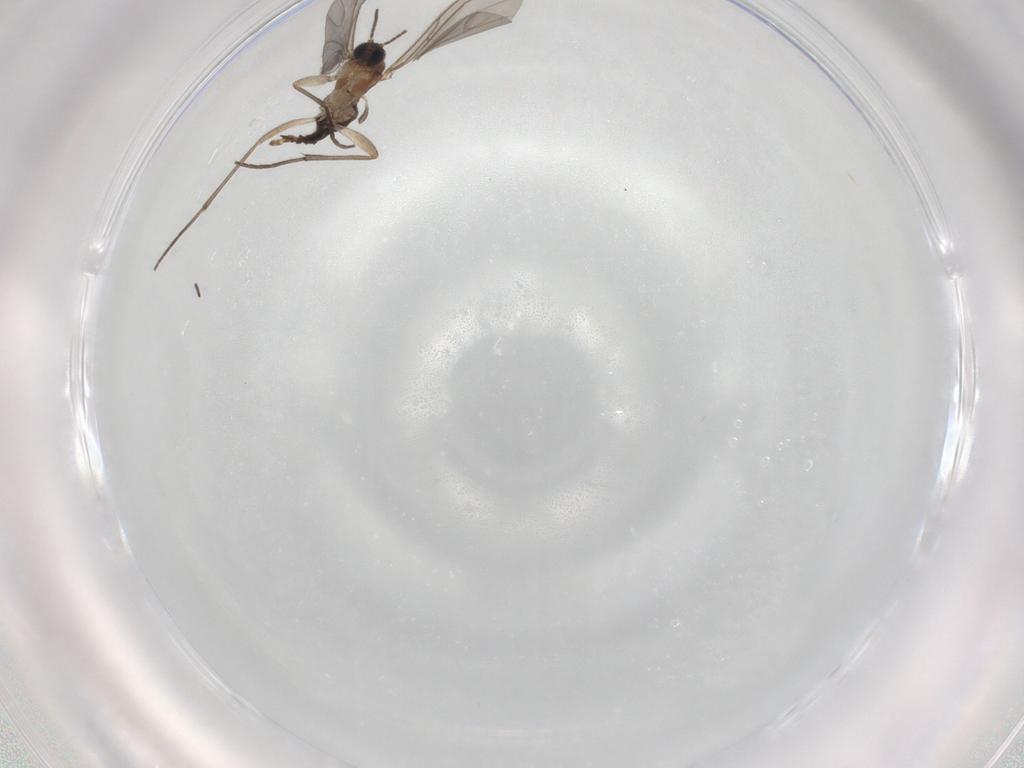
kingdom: Animalia
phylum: Arthropoda
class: Insecta
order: Diptera
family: Sciaridae
